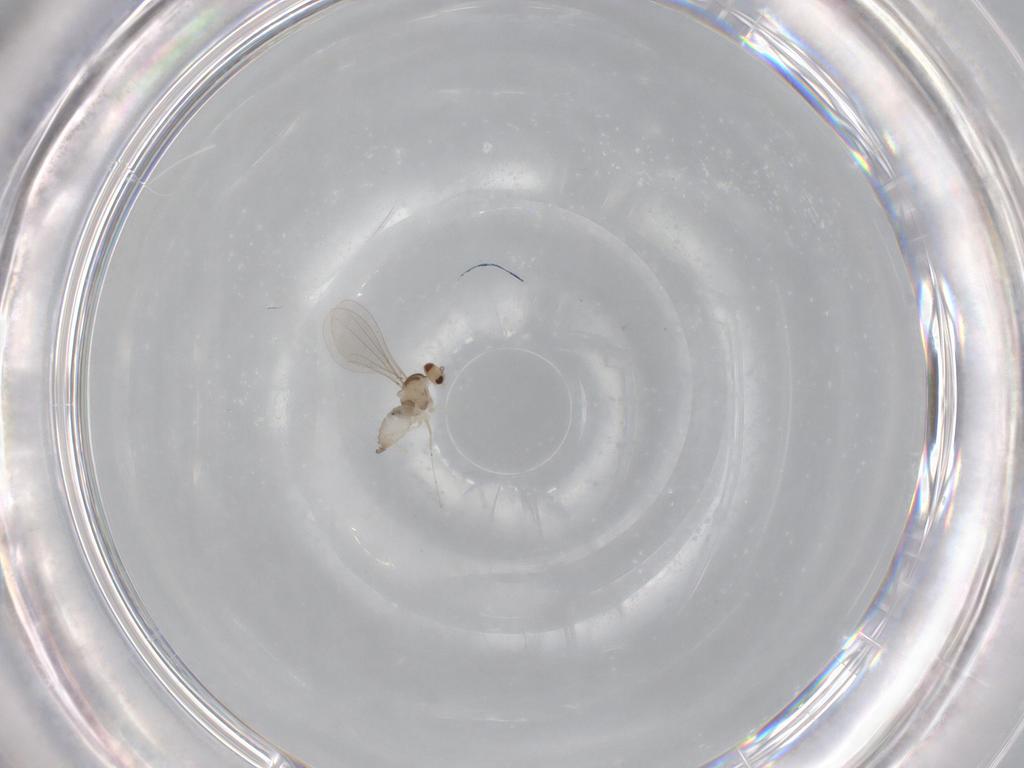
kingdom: Animalia
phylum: Arthropoda
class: Insecta
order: Diptera
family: Cecidomyiidae
